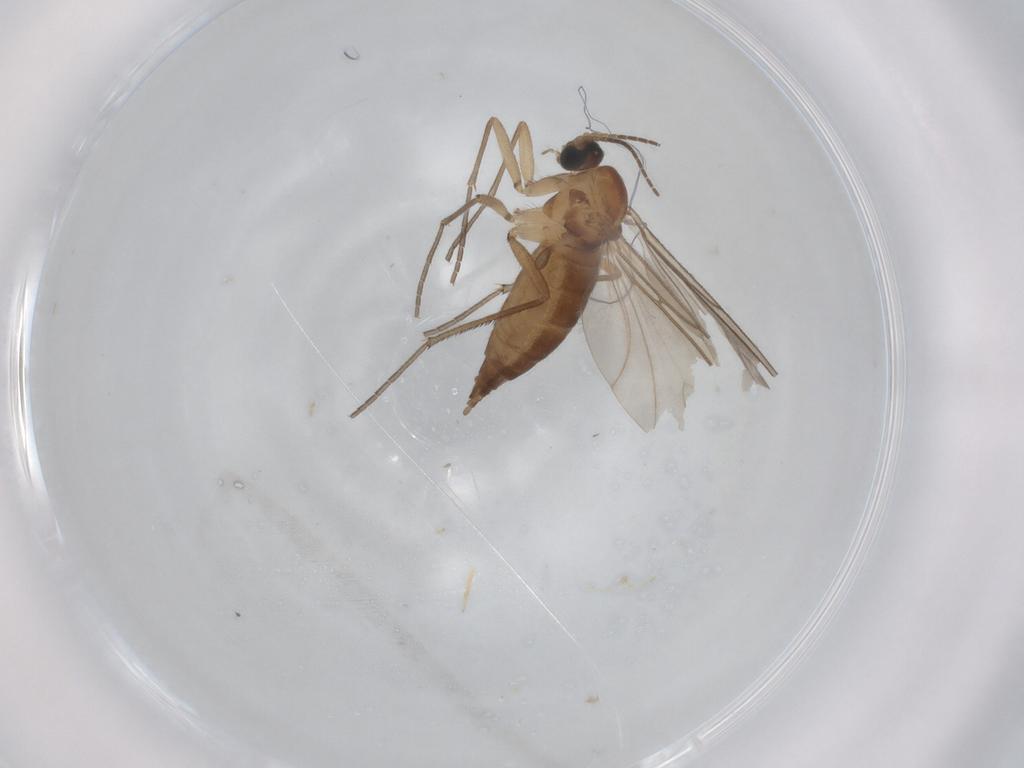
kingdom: Animalia
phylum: Arthropoda
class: Insecta
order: Diptera
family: Sciaridae
